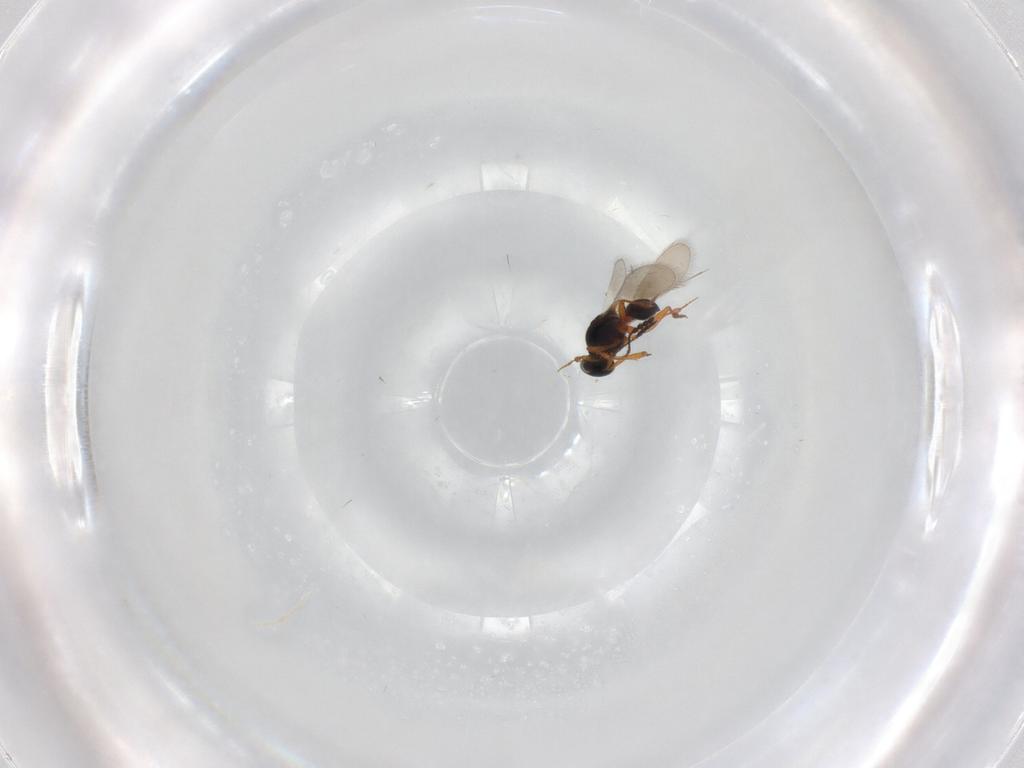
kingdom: Animalia
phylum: Arthropoda
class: Insecta
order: Hymenoptera
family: Platygastridae
